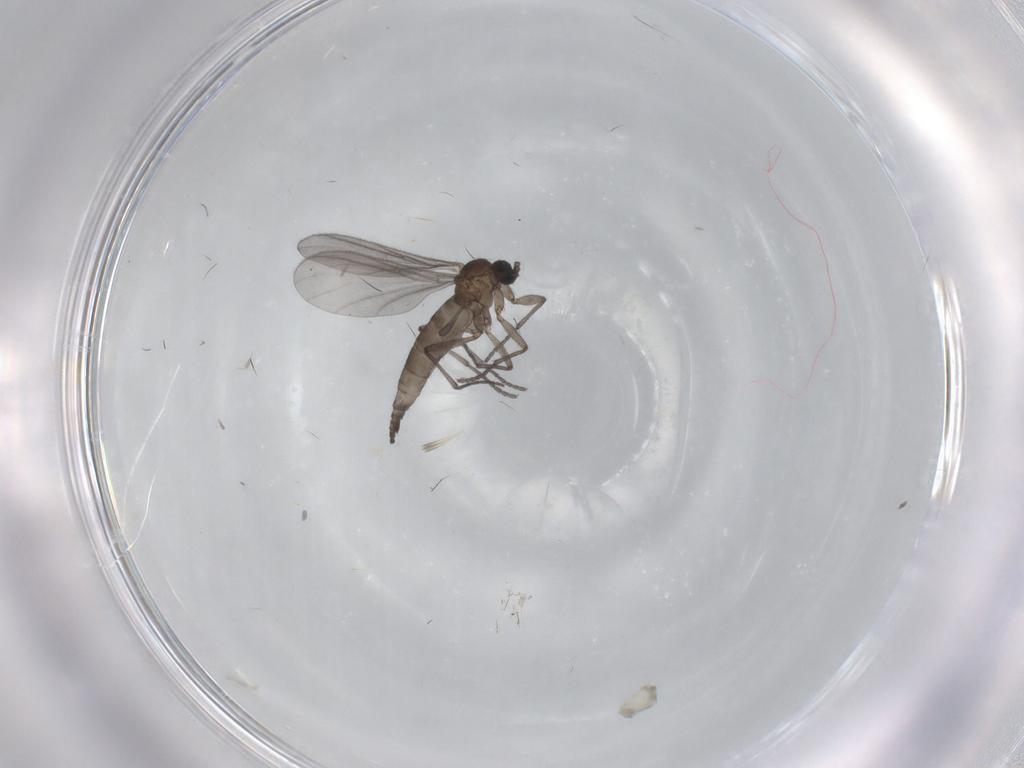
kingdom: Animalia
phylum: Arthropoda
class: Insecta
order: Diptera
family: Sciaridae
